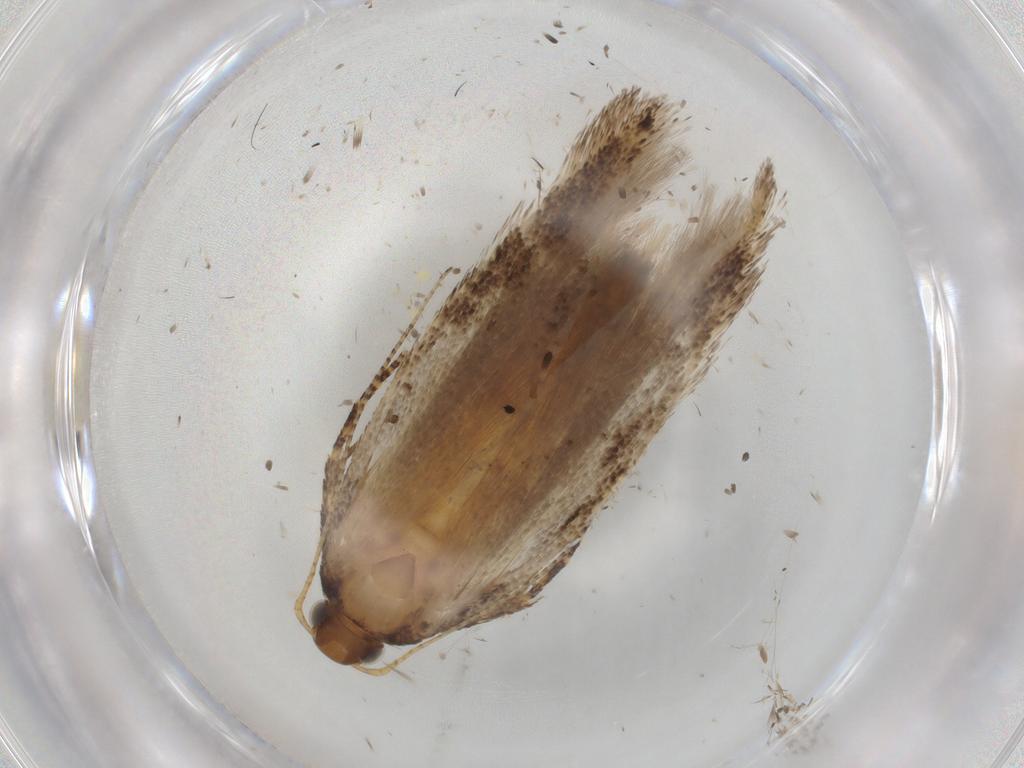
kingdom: Animalia
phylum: Arthropoda
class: Insecta
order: Lepidoptera
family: Gelechiidae
